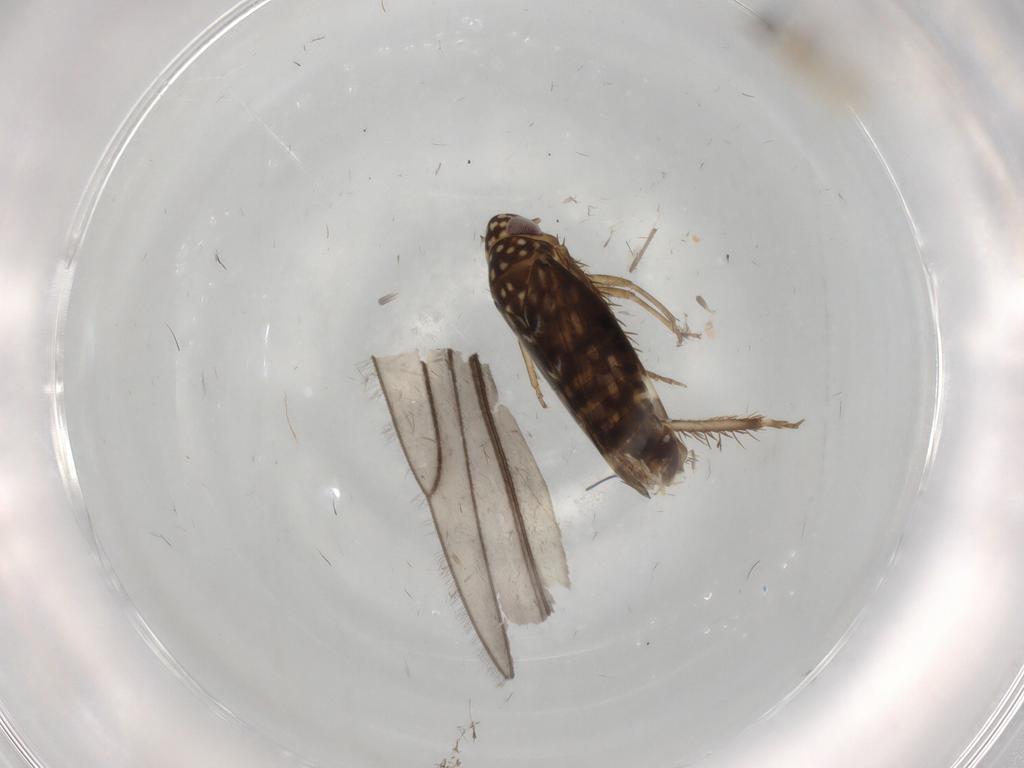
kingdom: Animalia
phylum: Arthropoda
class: Insecta
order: Hemiptera
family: Cicadellidae
